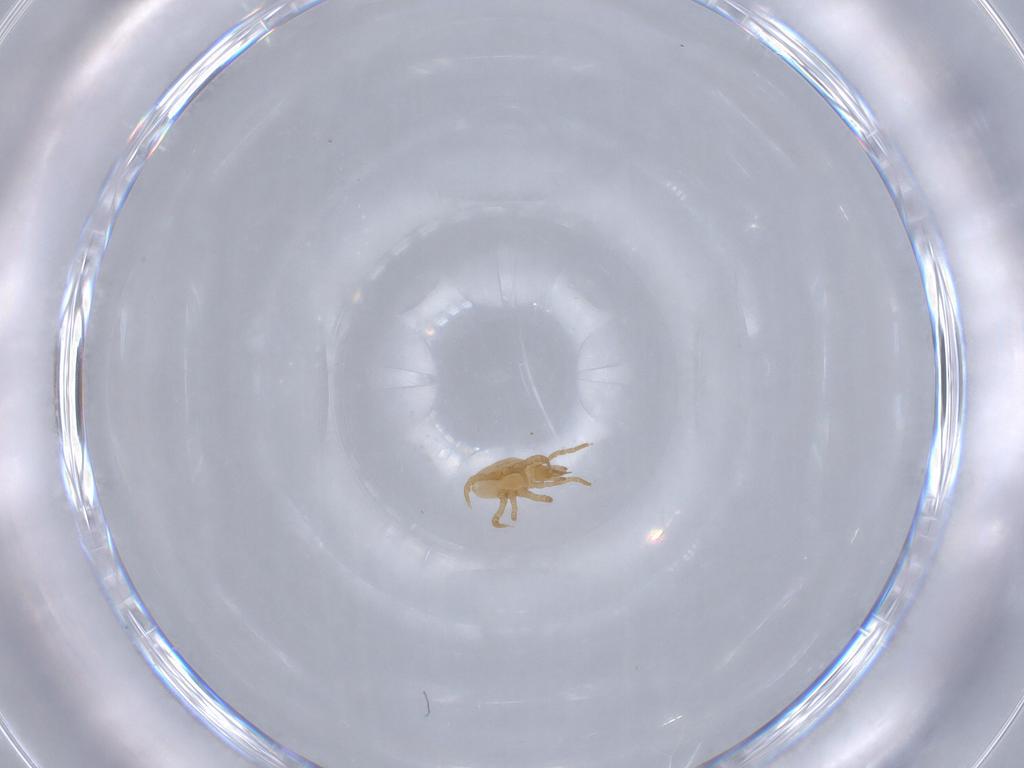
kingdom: Animalia
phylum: Arthropoda
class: Arachnida
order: Mesostigmata
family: Parasitidae
